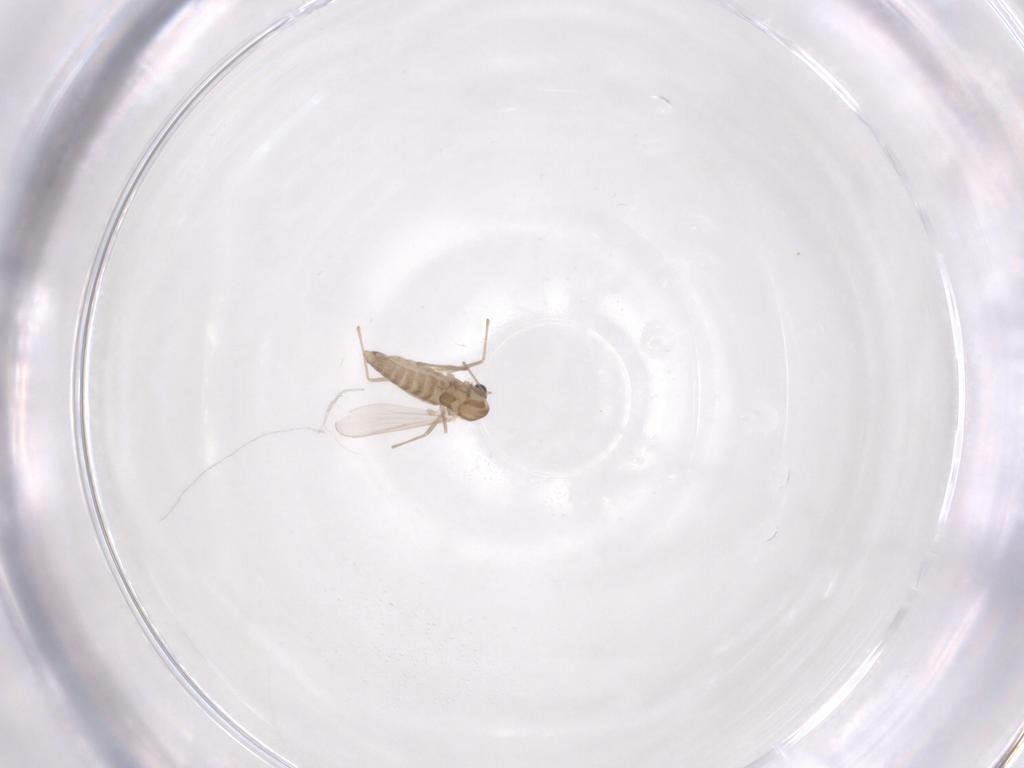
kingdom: Animalia
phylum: Arthropoda
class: Insecta
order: Diptera
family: Chironomidae
